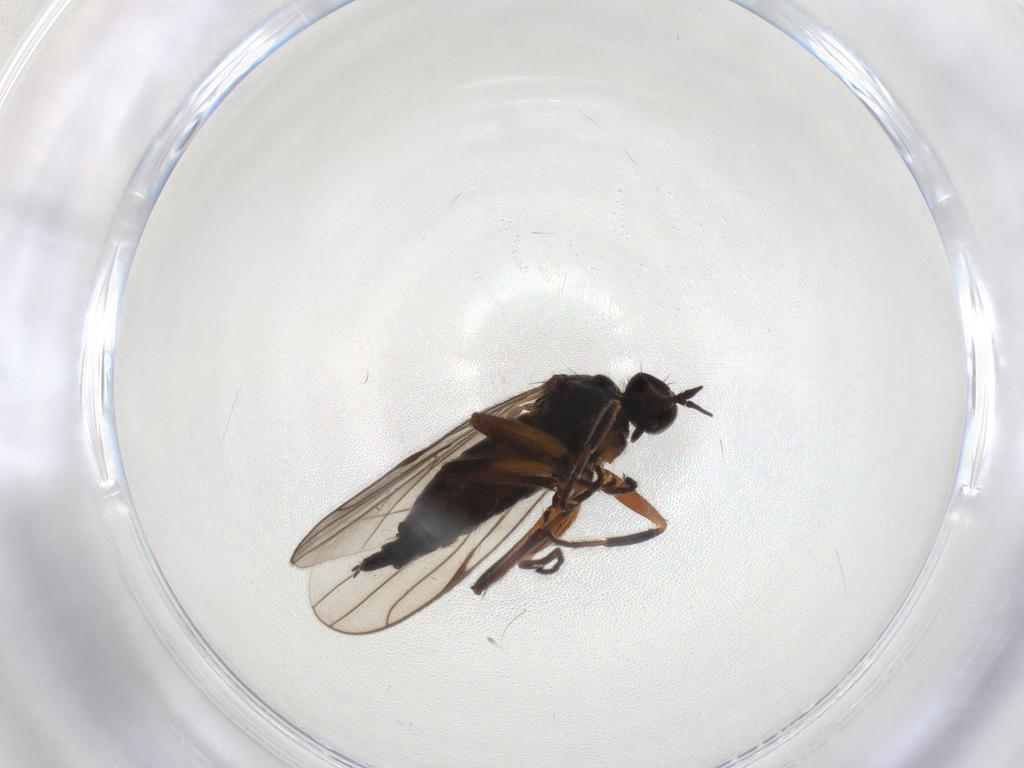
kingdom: Animalia
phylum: Arthropoda
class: Insecta
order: Diptera
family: Hybotidae
